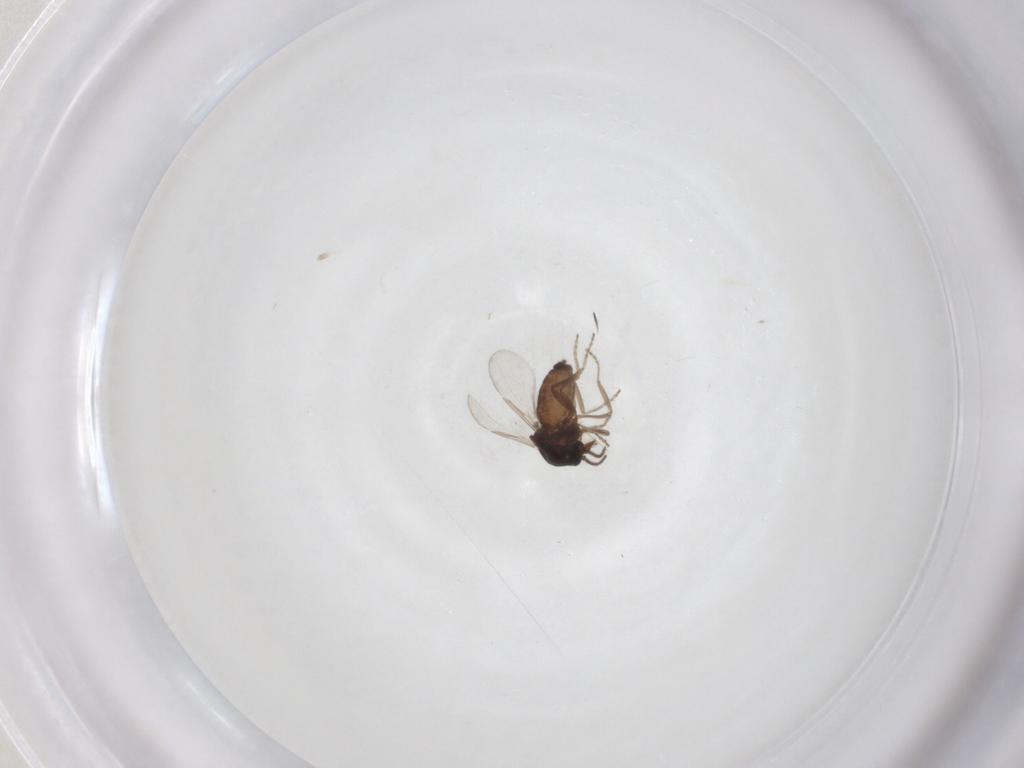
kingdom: Animalia
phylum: Arthropoda
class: Insecta
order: Diptera
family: Ceratopogonidae
